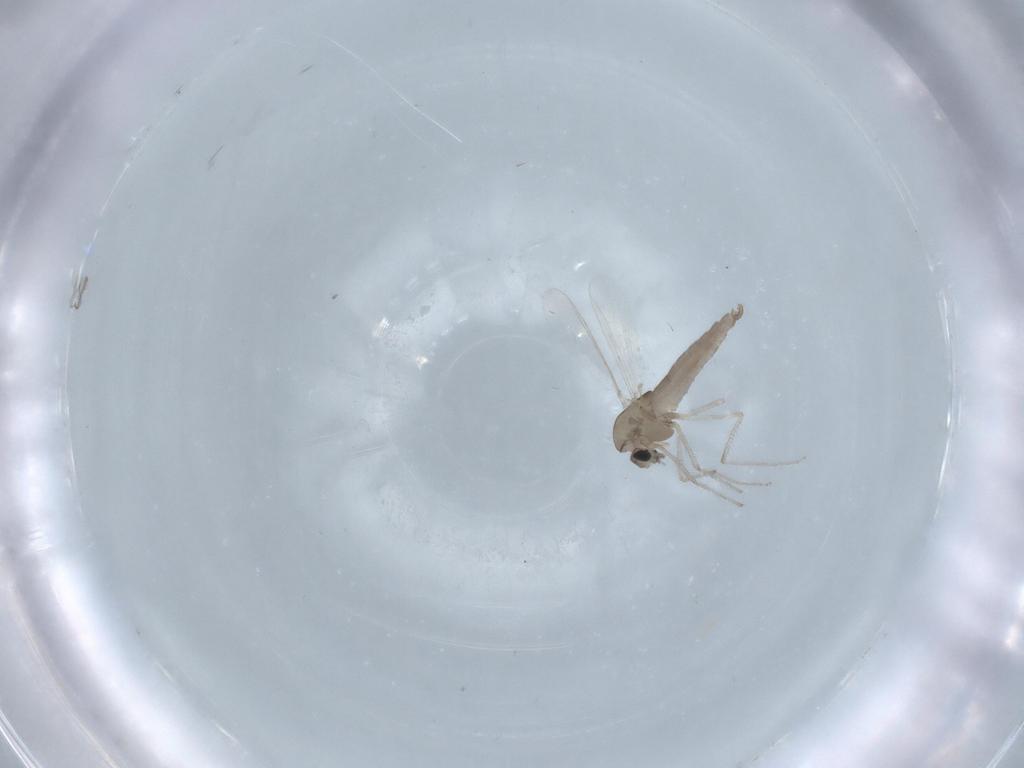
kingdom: Animalia
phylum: Arthropoda
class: Insecta
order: Diptera
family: Chironomidae
